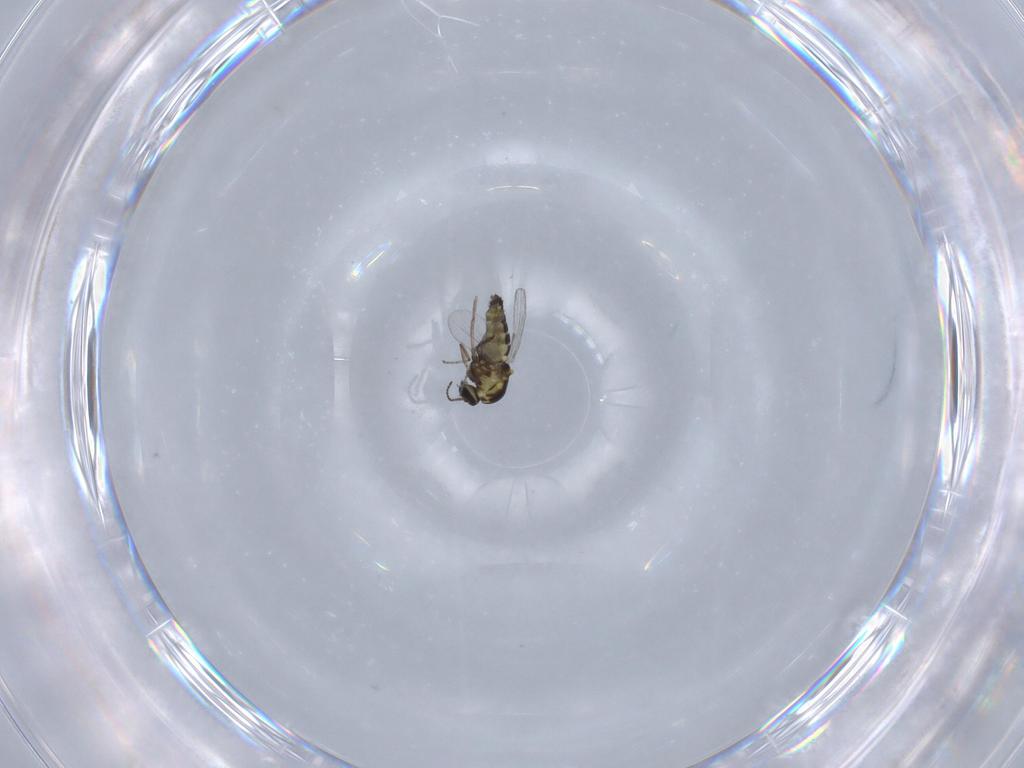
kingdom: Animalia
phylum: Arthropoda
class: Insecta
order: Diptera
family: Ceratopogonidae
